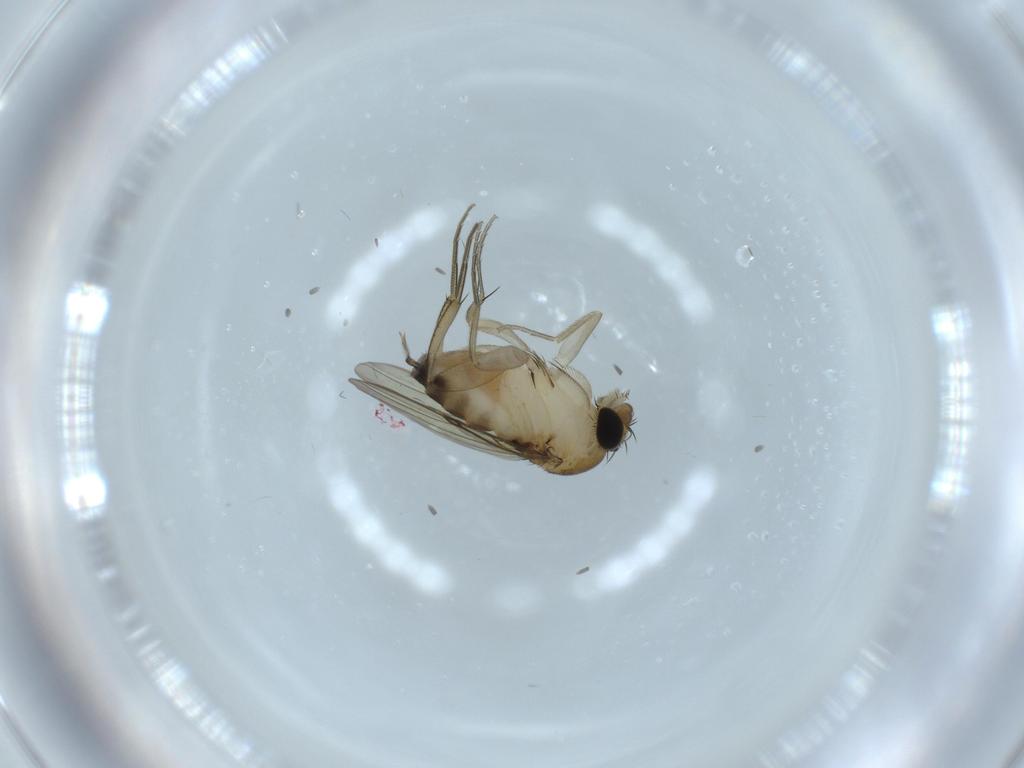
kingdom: Animalia
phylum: Arthropoda
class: Insecta
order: Diptera
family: Phoridae
